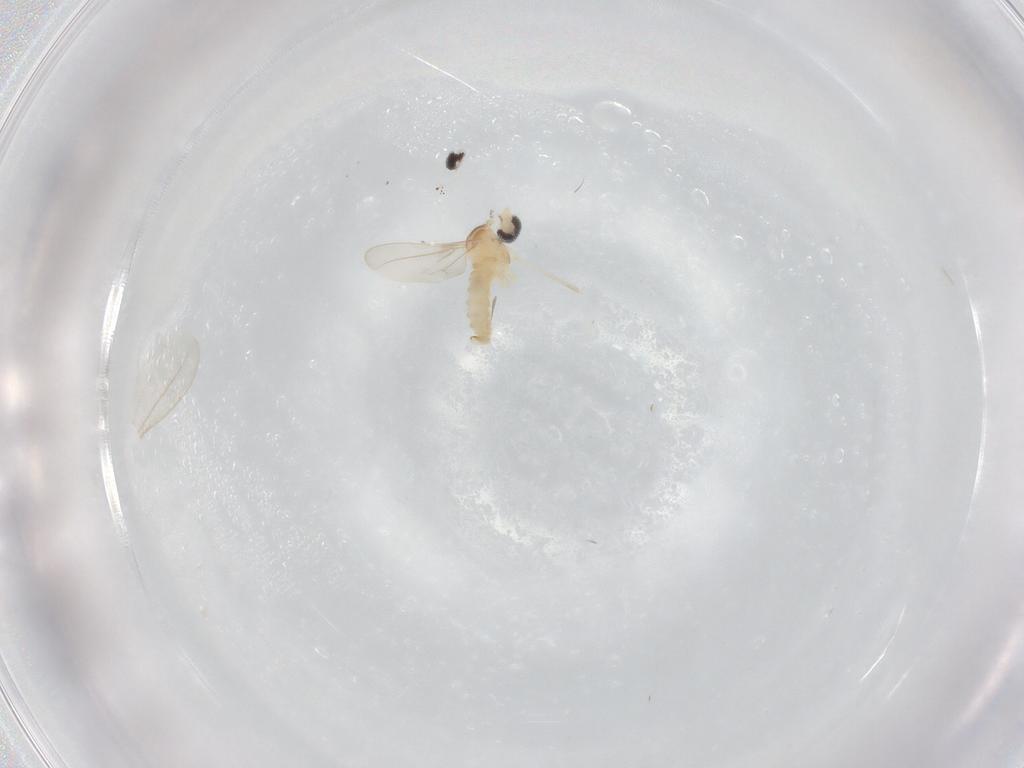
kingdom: Animalia
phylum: Arthropoda
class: Insecta
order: Diptera
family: Cecidomyiidae
